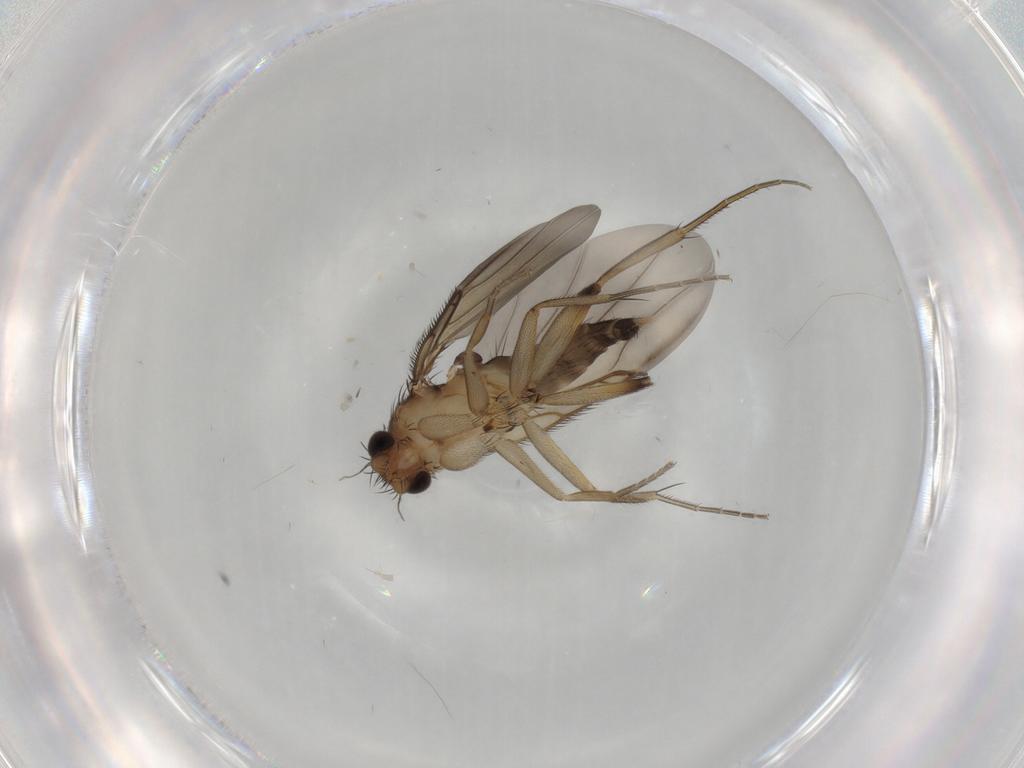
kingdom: Animalia
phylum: Arthropoda
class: Insecta
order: Diptera
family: Phoridae
